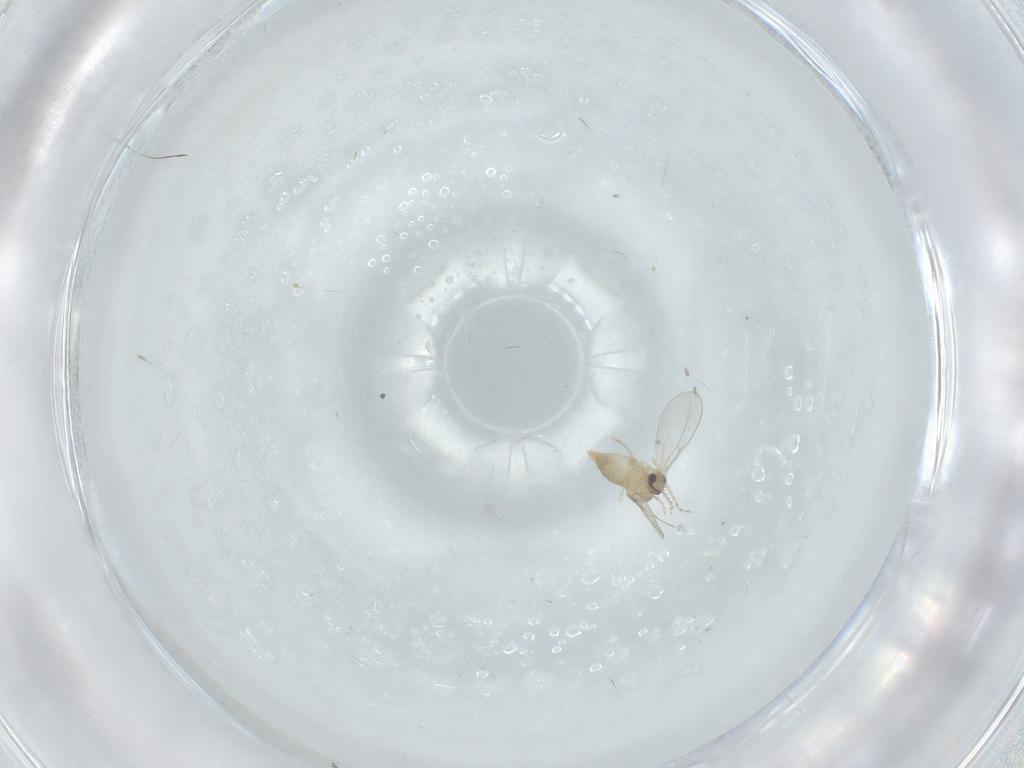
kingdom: Animalia
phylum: Arthropoda
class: Insecta
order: Diptera
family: Cecidomyiidae
